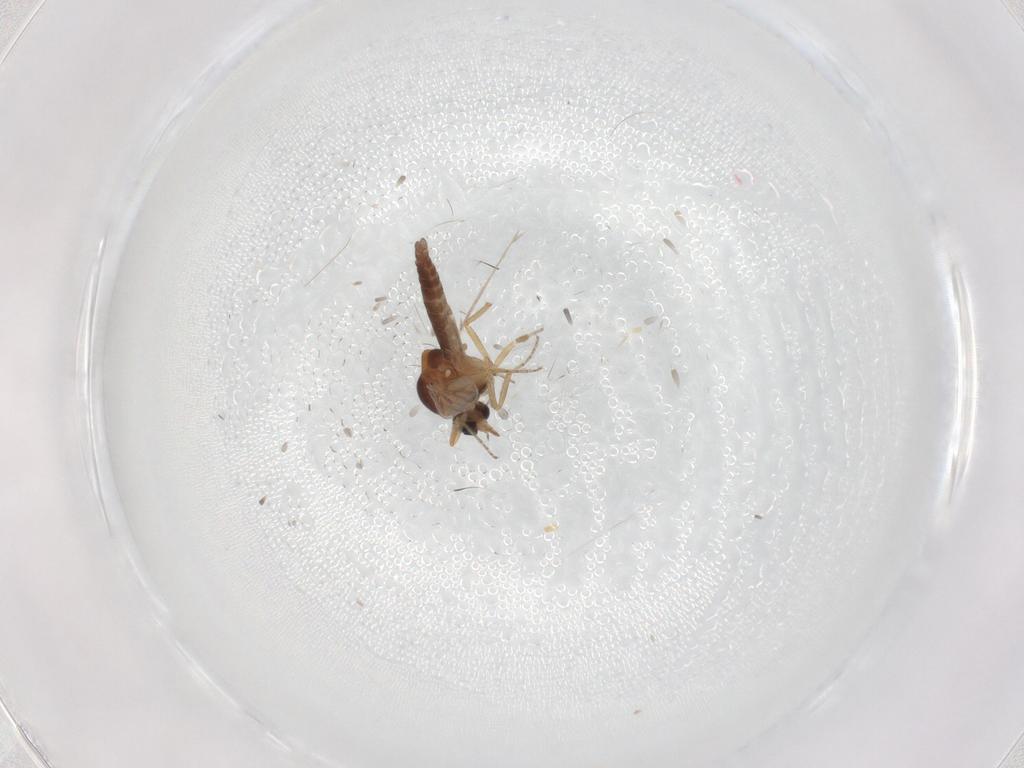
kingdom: Animalia
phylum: Arthropoda
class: Insecta
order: Diptera
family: Ceratopogonidae
